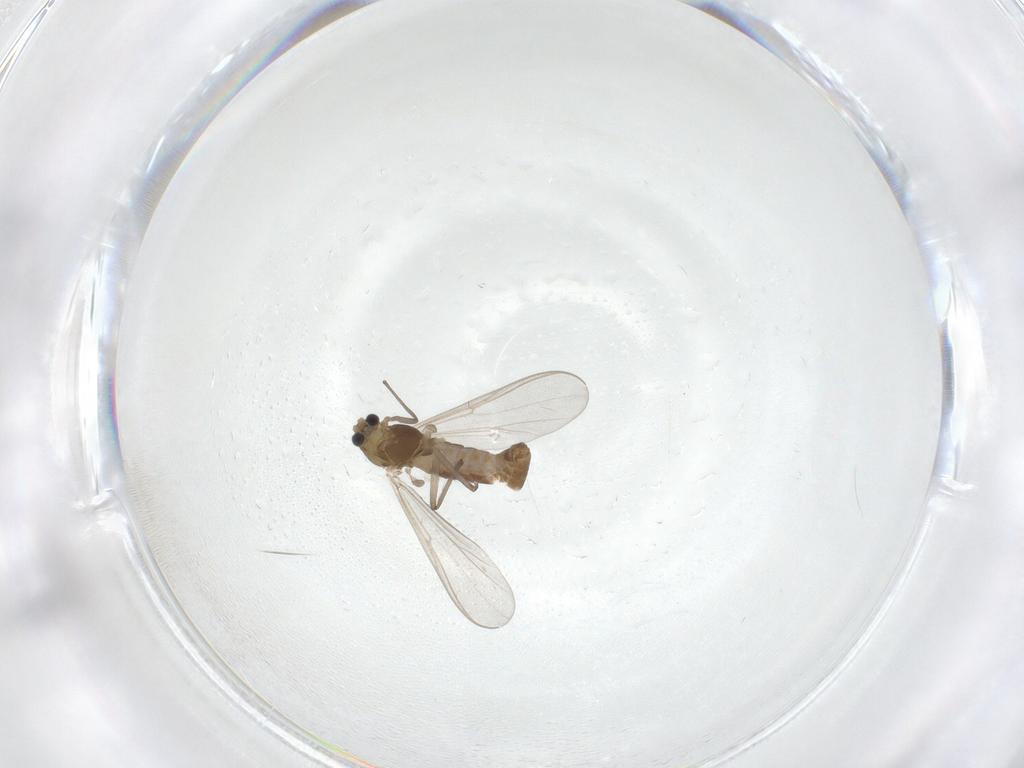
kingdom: Animalia
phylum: Arthropoda
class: Insecta
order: Diptera
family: Chironomidae
